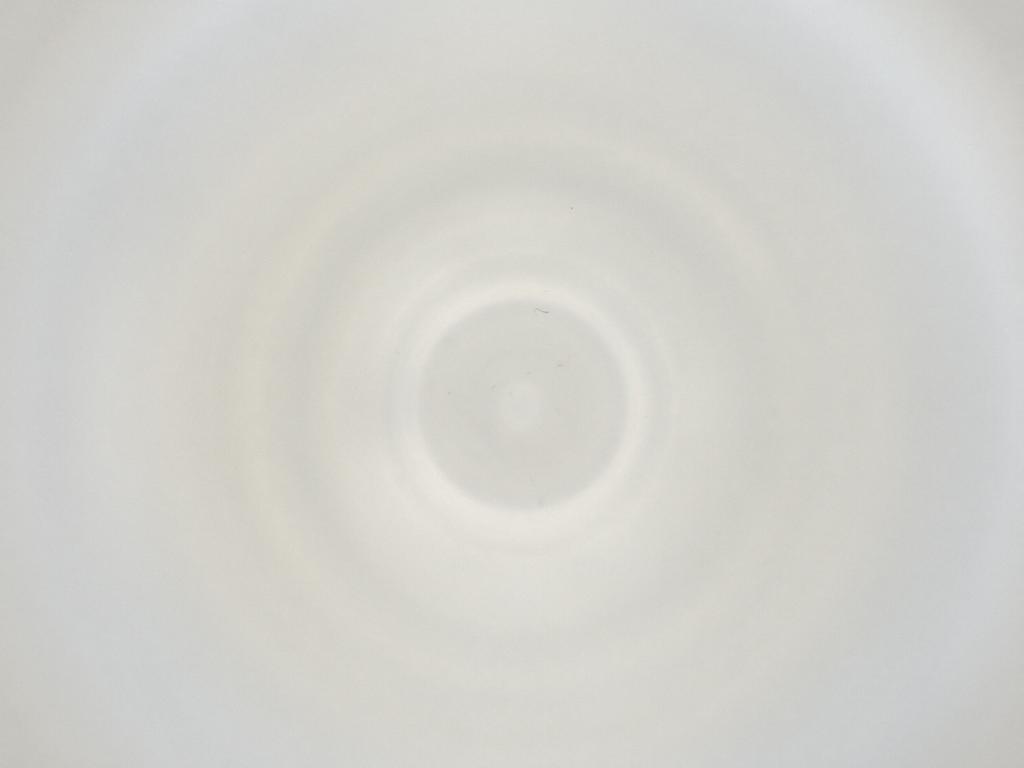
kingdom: Animalia
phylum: Arthropoda
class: Insecta
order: Diptera
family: Cecidomyiidae
